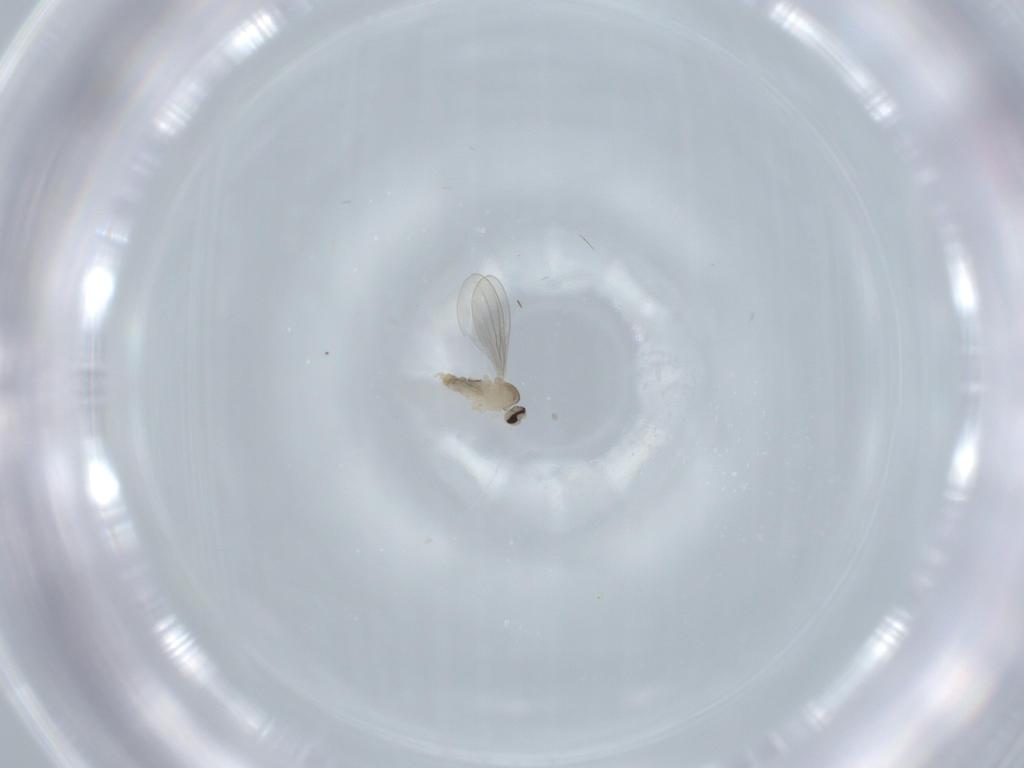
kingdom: Animalia
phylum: Arthropoda
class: Insecta
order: Diptera
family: Cecidomyiidae
